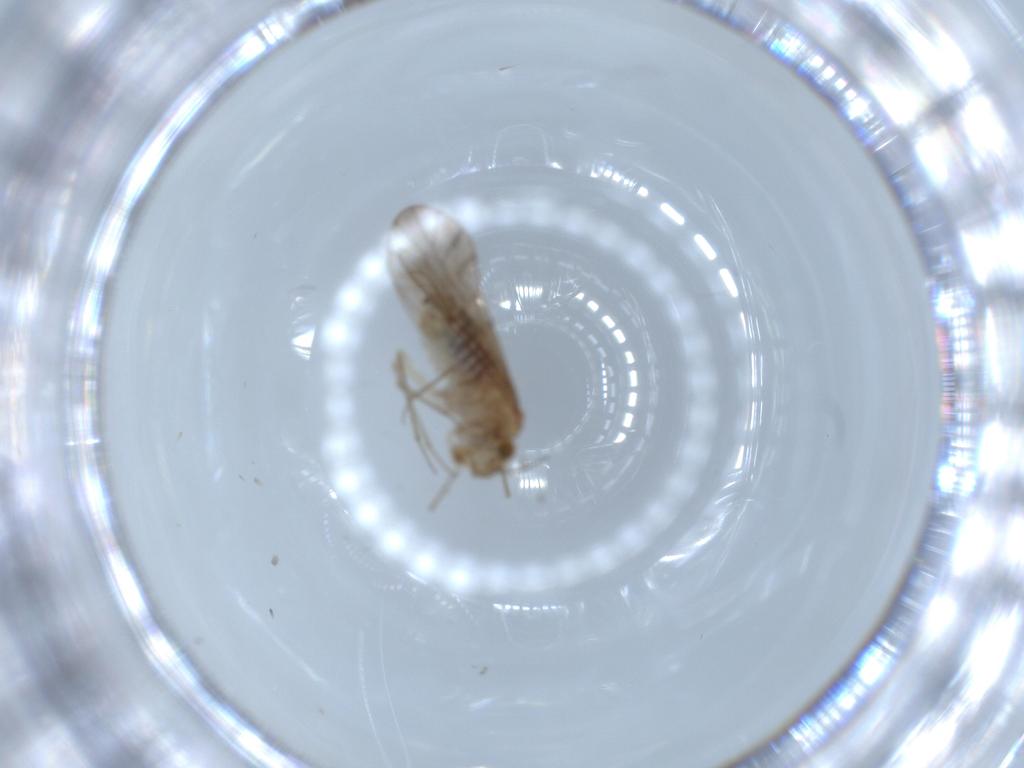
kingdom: Animalia
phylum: Arthropoda
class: Insecta
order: Psocodea
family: Lachesillidae
